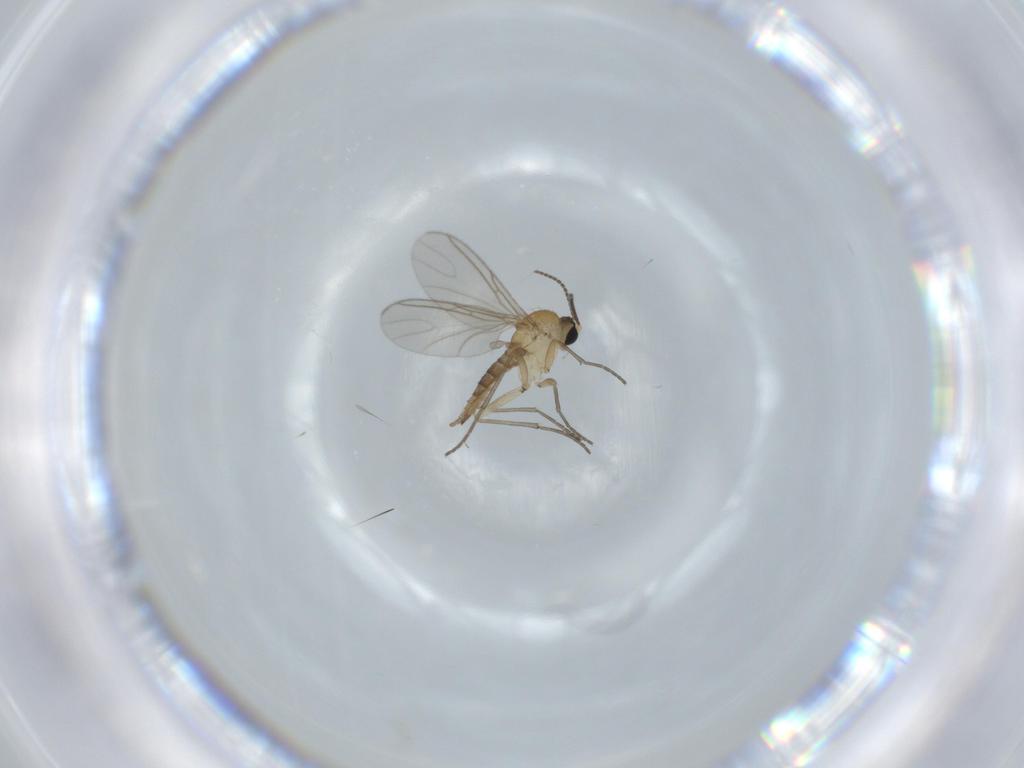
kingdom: Animalia
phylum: Arthropoda
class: Insecta
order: Diptera
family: Sciaridae
